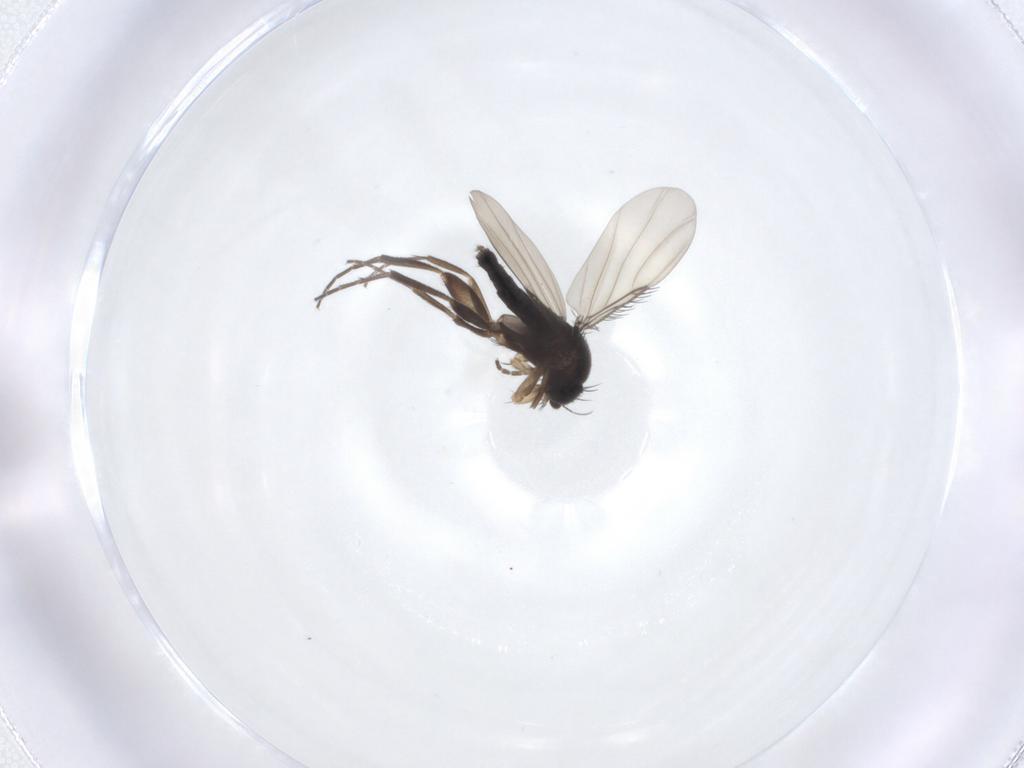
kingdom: Animalia
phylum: Arthropoda
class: Insecta
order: Diptera
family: Phoridae
